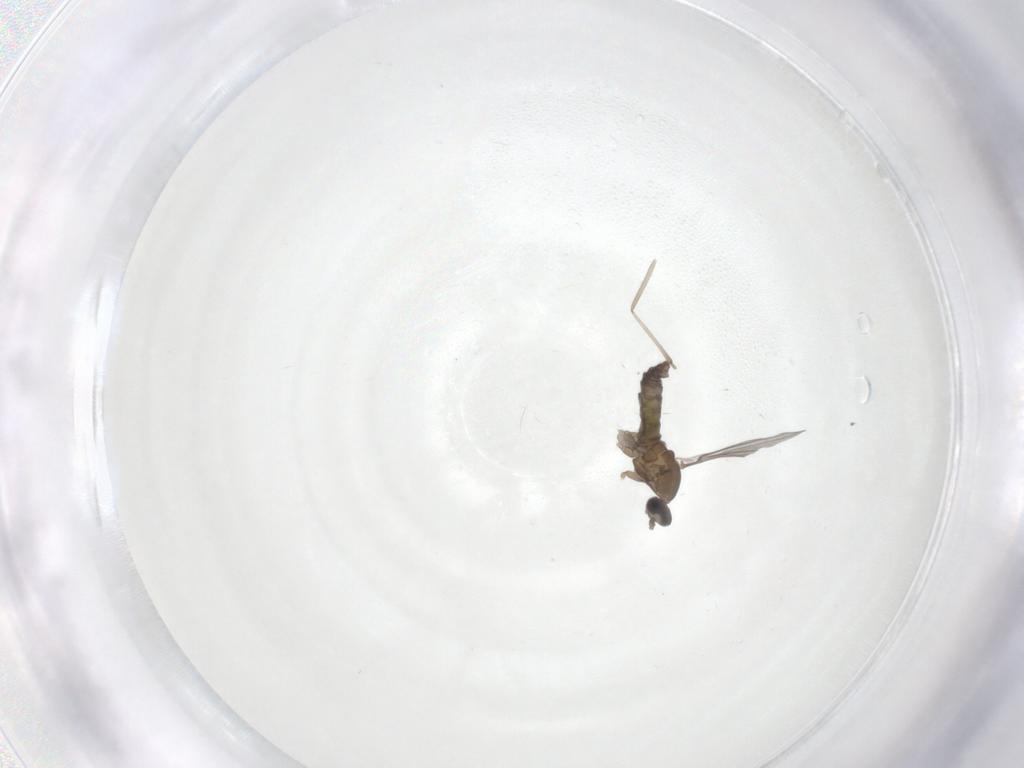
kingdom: Animalia
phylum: Arthropoda
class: Insecta
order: Diptera
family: Cecidomyiidae
